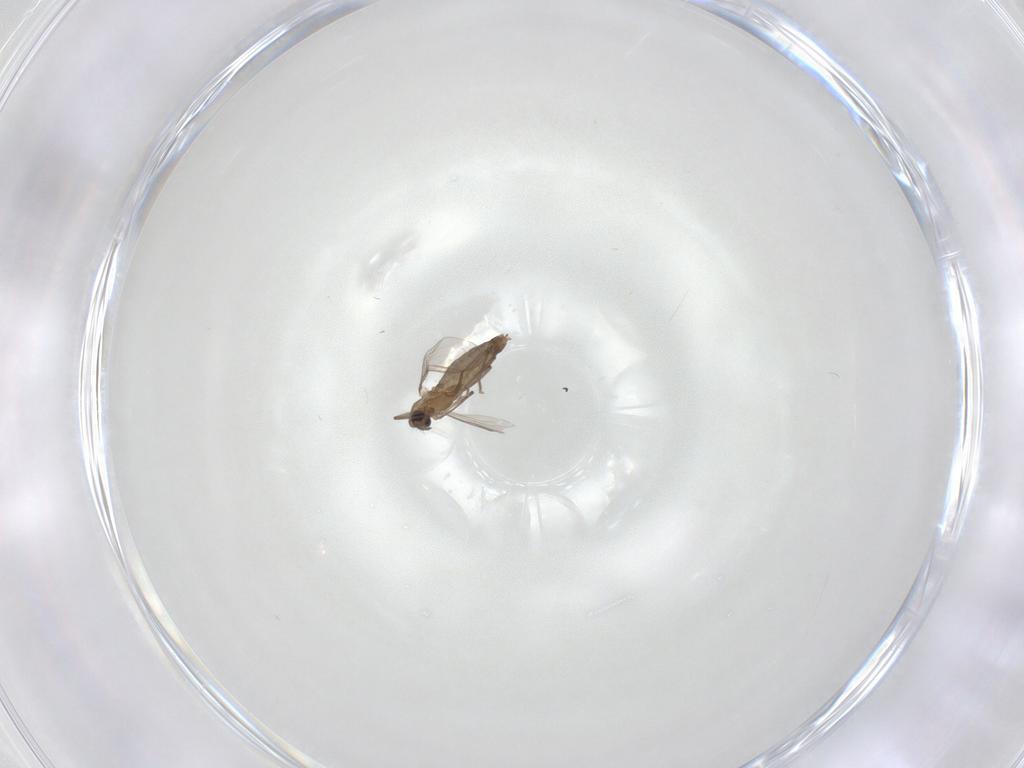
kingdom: Animalia
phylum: Arthropoda
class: Insecta
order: Diptera
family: Chironomidae
